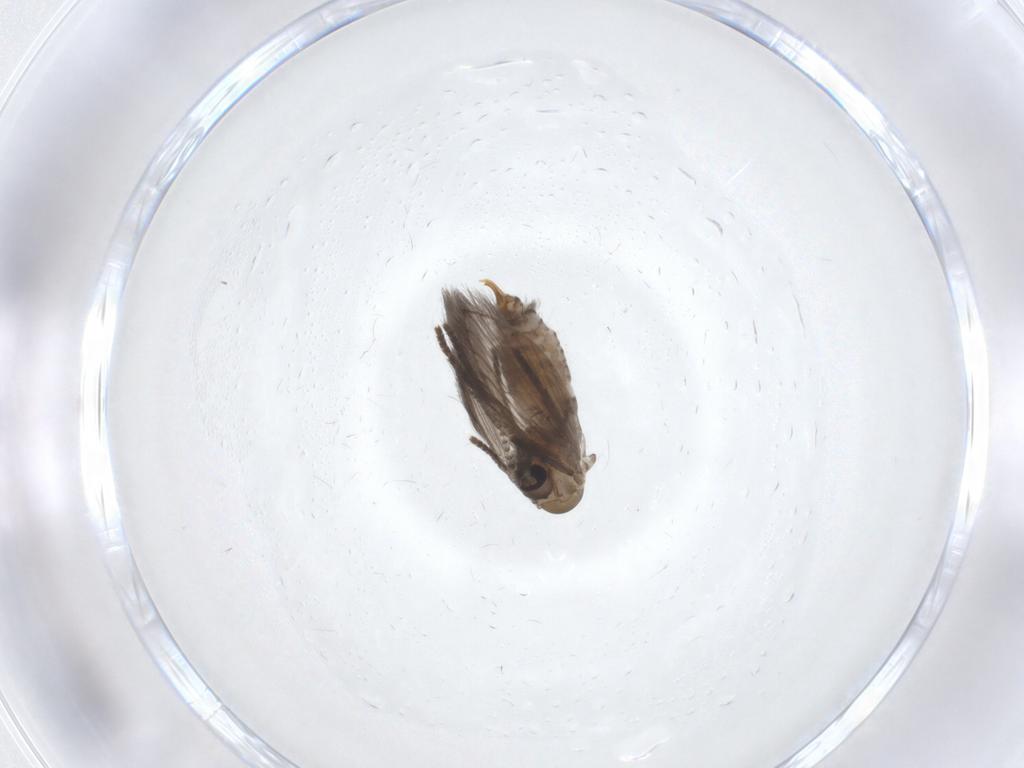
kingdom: Animalia
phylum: Arthropoda
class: Insecta
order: Diptera
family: Psychodidae
